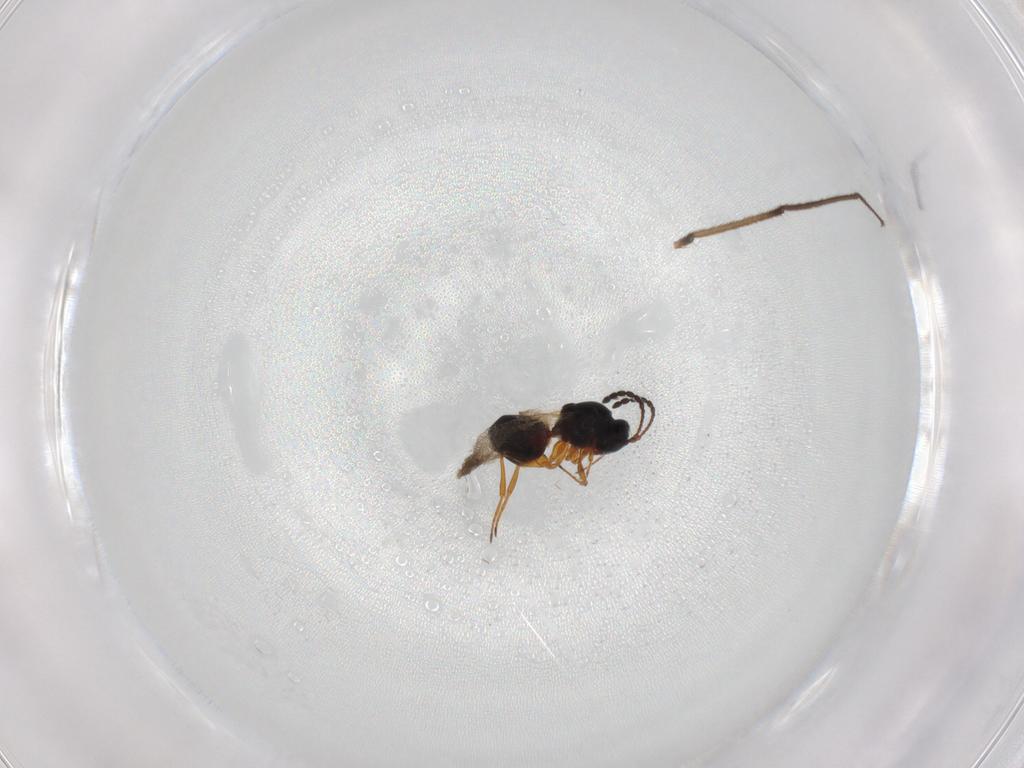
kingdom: Animalia
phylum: Arthropoda
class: Insecta
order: Hymenoptera
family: Figitidae
